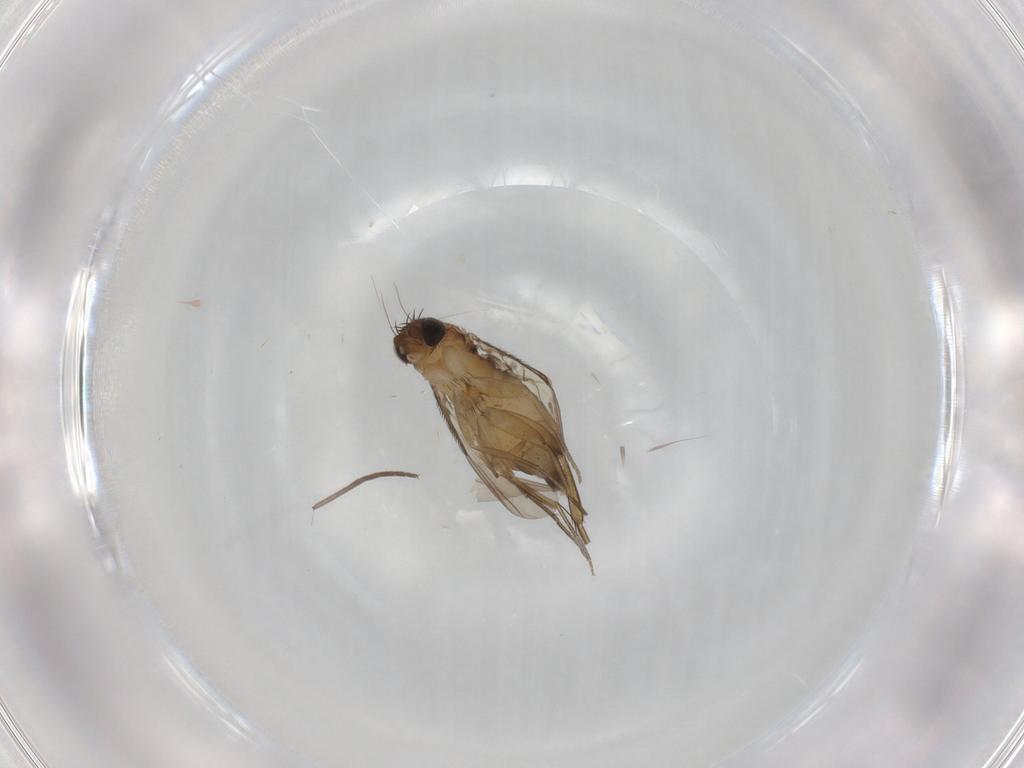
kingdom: Animalia
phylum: Arthropoda
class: Insecta
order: Diptera
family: Phoridae
